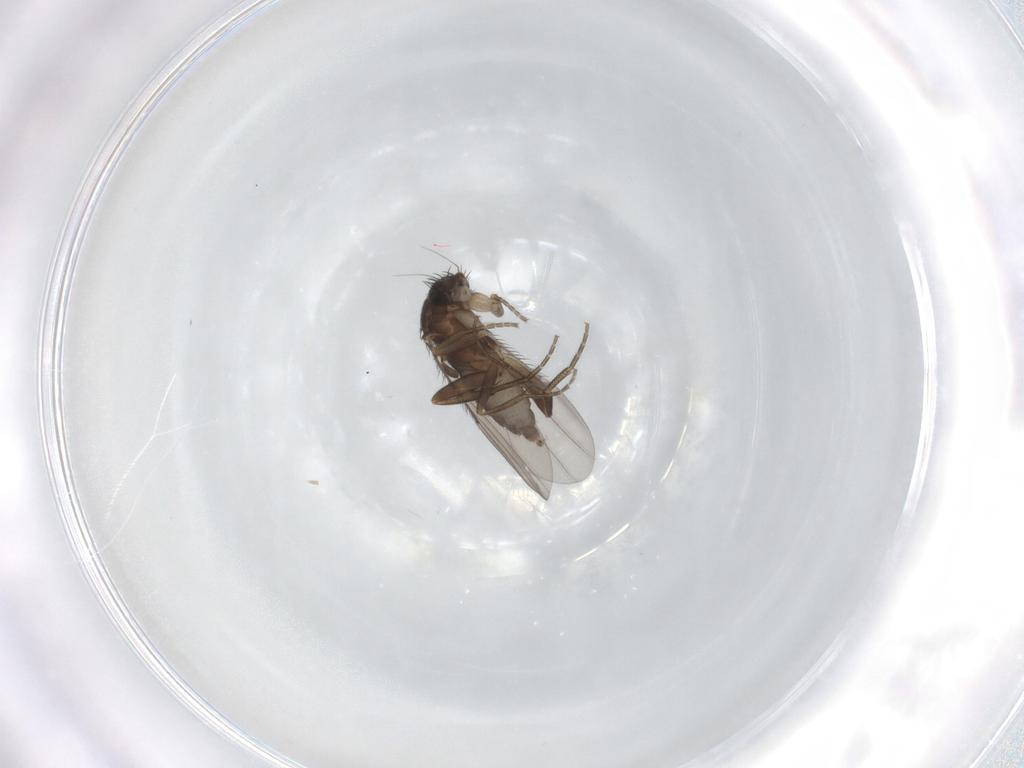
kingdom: Animalia
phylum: Arthropoda
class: Insecta
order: Diptera
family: Phoridae
